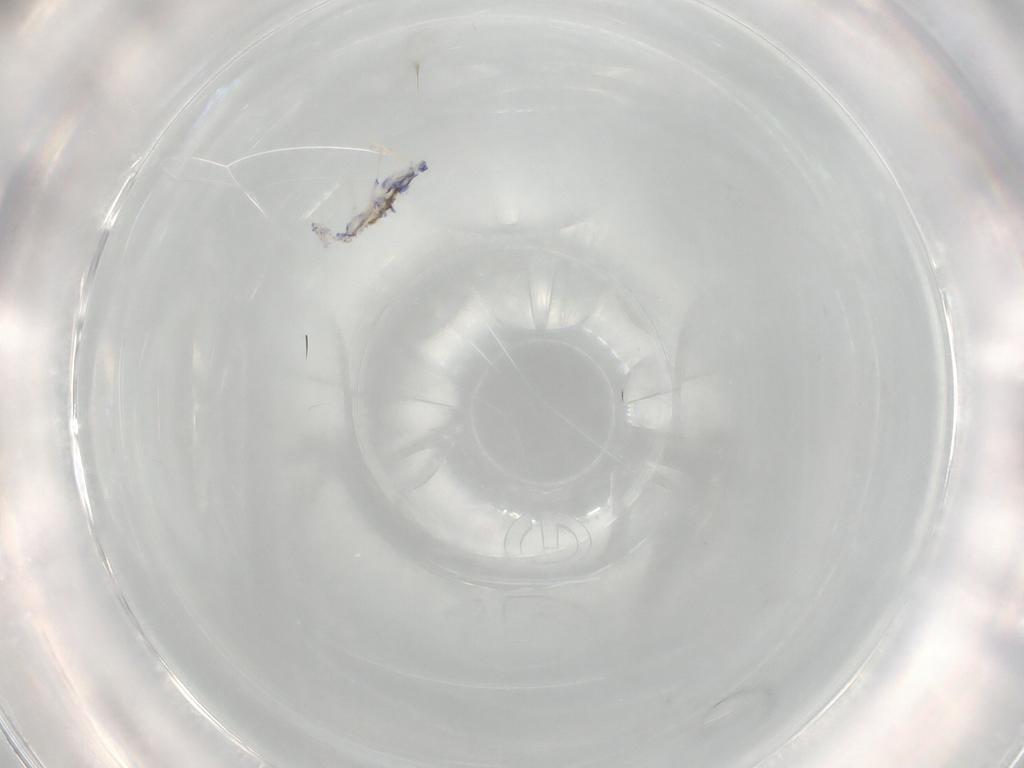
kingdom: Animalia
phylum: Arthropoda
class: Collembola
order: Entomobryomorpha
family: Entomobryidae
